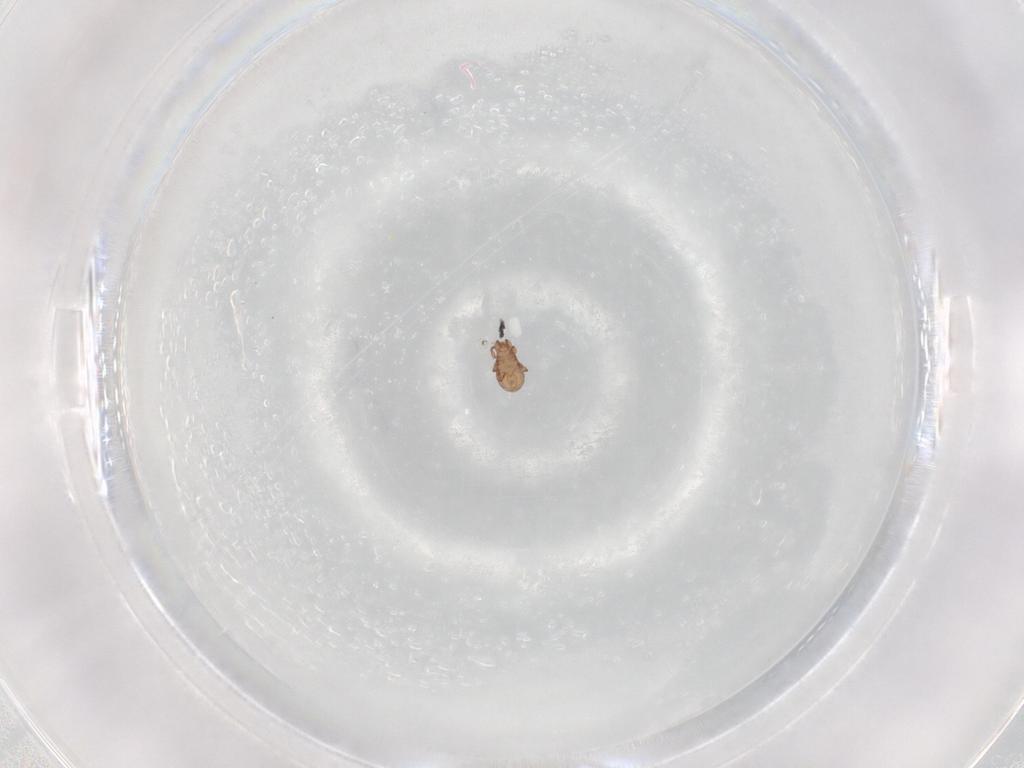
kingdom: Animalia
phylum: Arthropoda
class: Arachnida
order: Sarcoptiformes
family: Eremaeidae
